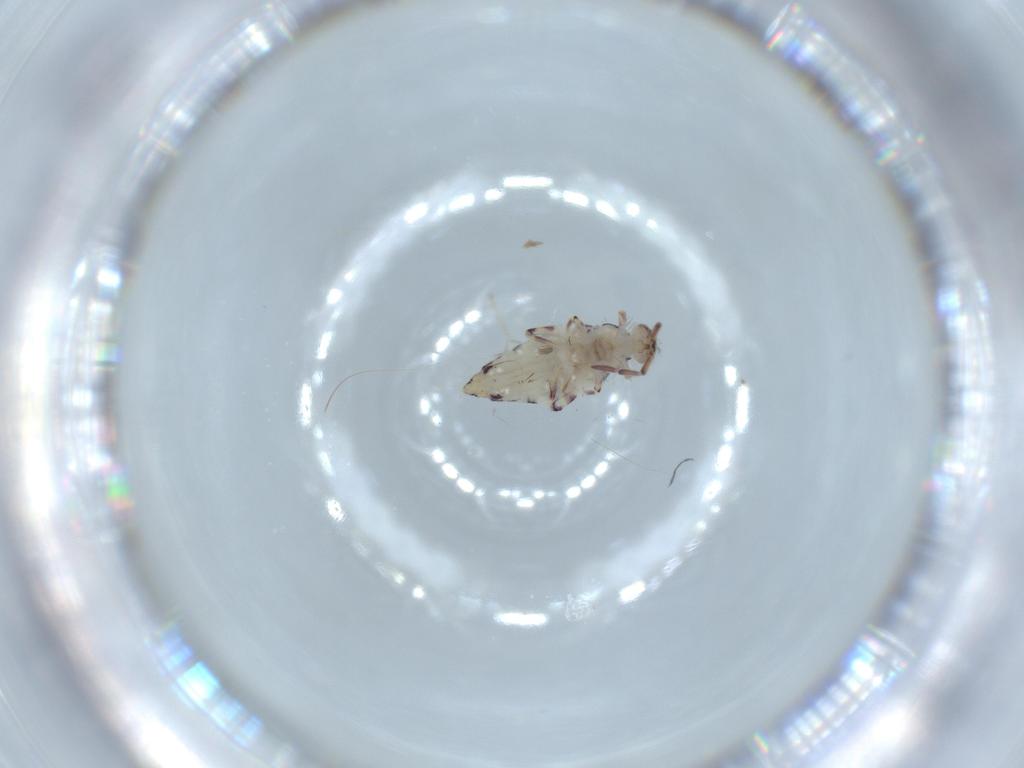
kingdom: Animalia
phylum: Arthropoda
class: Collembola
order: Entomobryomorpha
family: Entomobryidae
